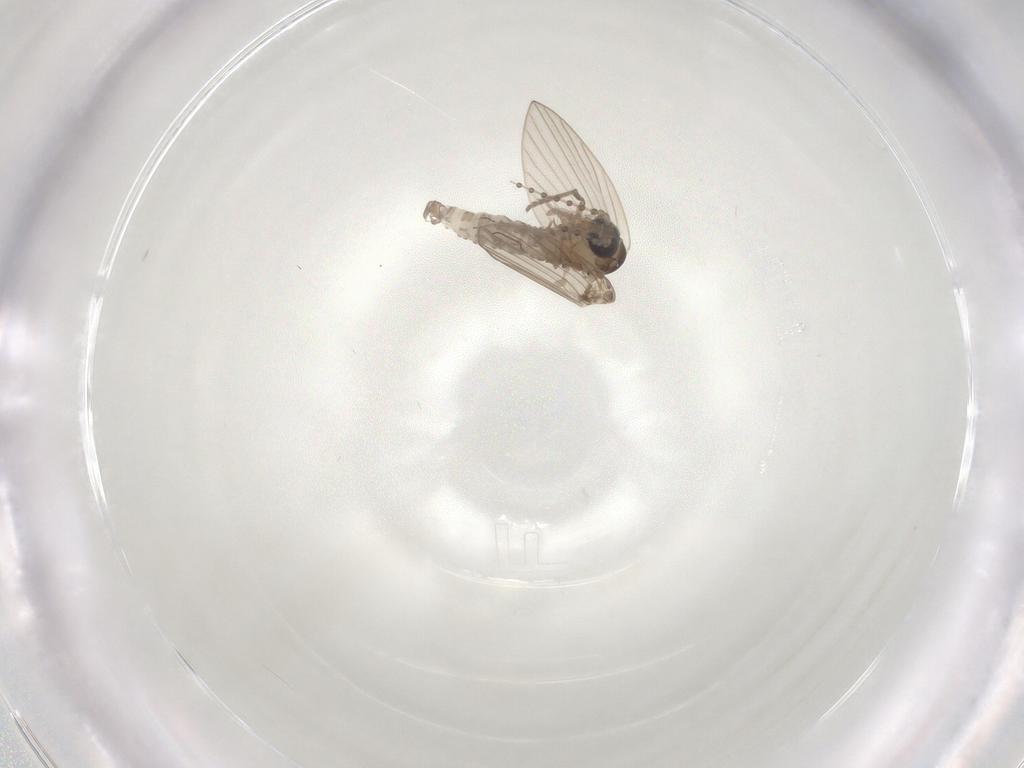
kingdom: Animalia
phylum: Arthropoda
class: Insecta
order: Diptera
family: Psychodidae
